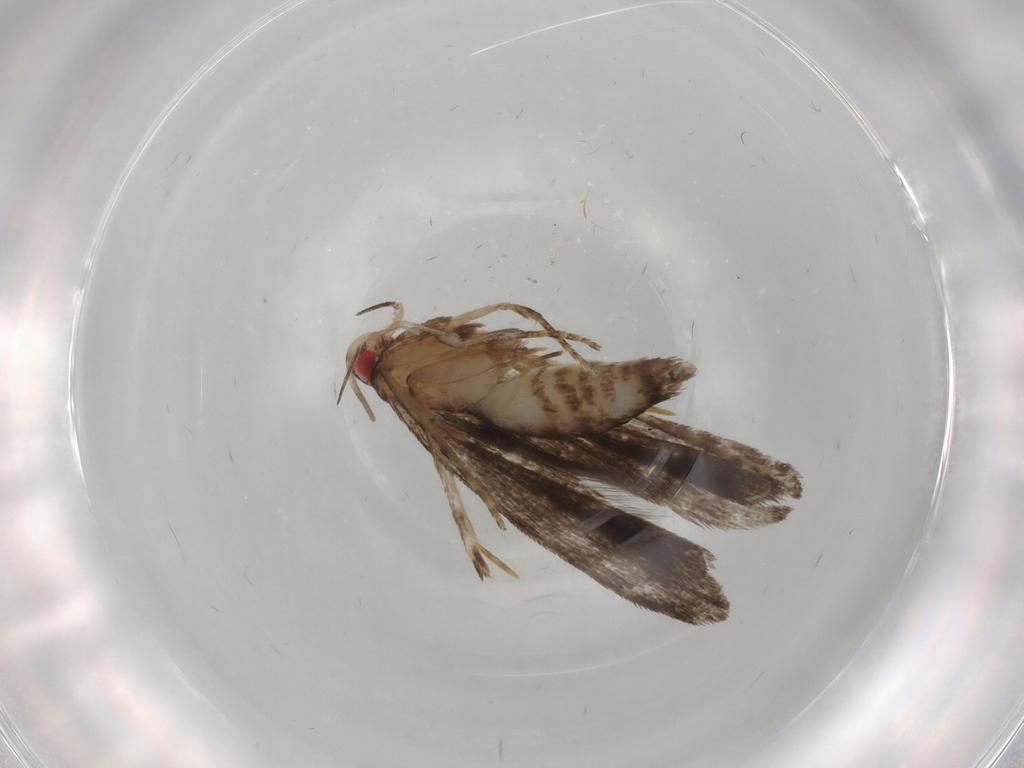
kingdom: Animalia
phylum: Arthropoda
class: Insecta
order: Lepidoptera
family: Gelechiidae
